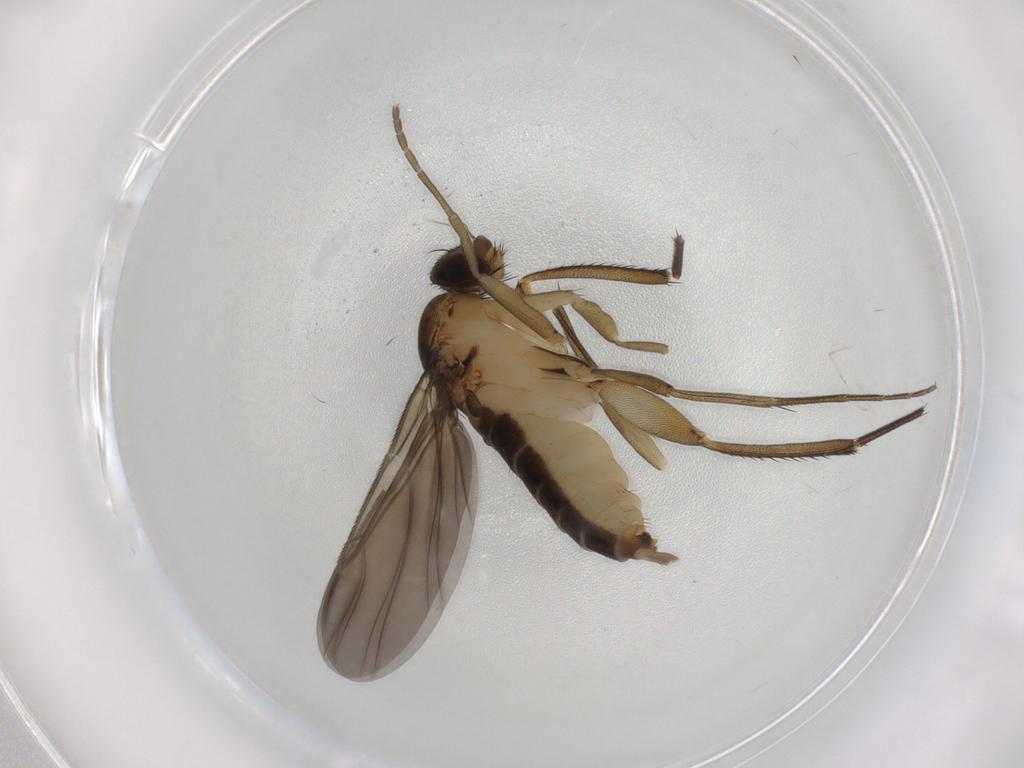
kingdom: Animalia
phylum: Arthropoda
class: Insecta
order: Diptera
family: Phoridae
